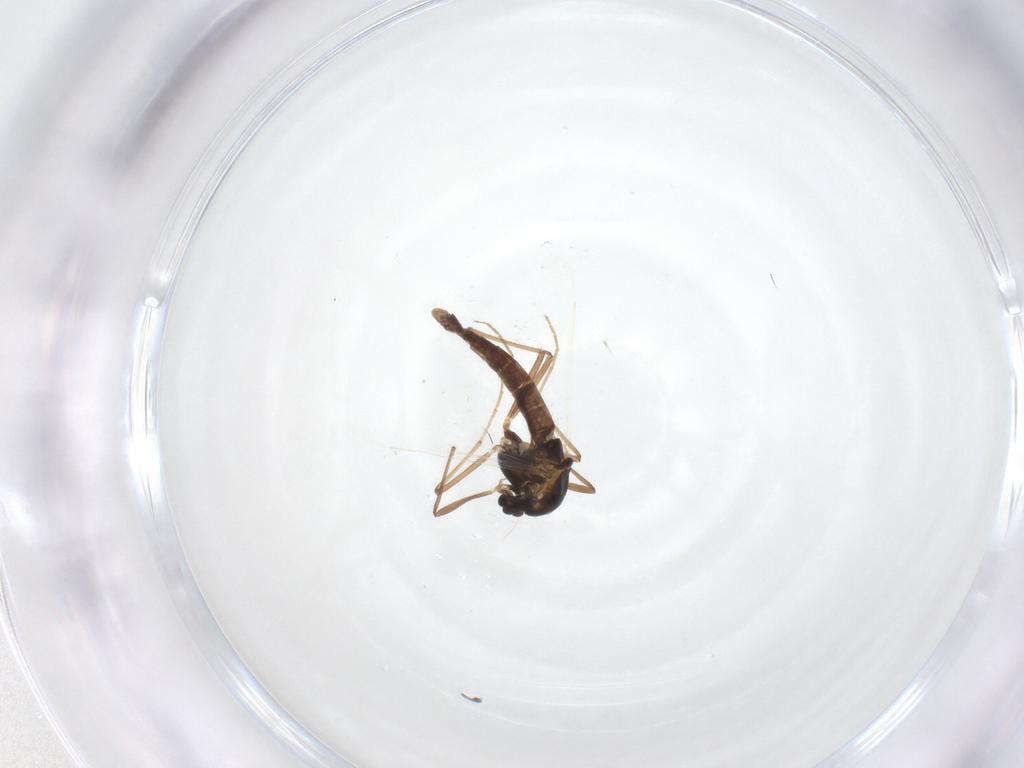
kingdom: Animalia
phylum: Arthropoda
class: Insecta
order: Diptera
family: Chironomidae
